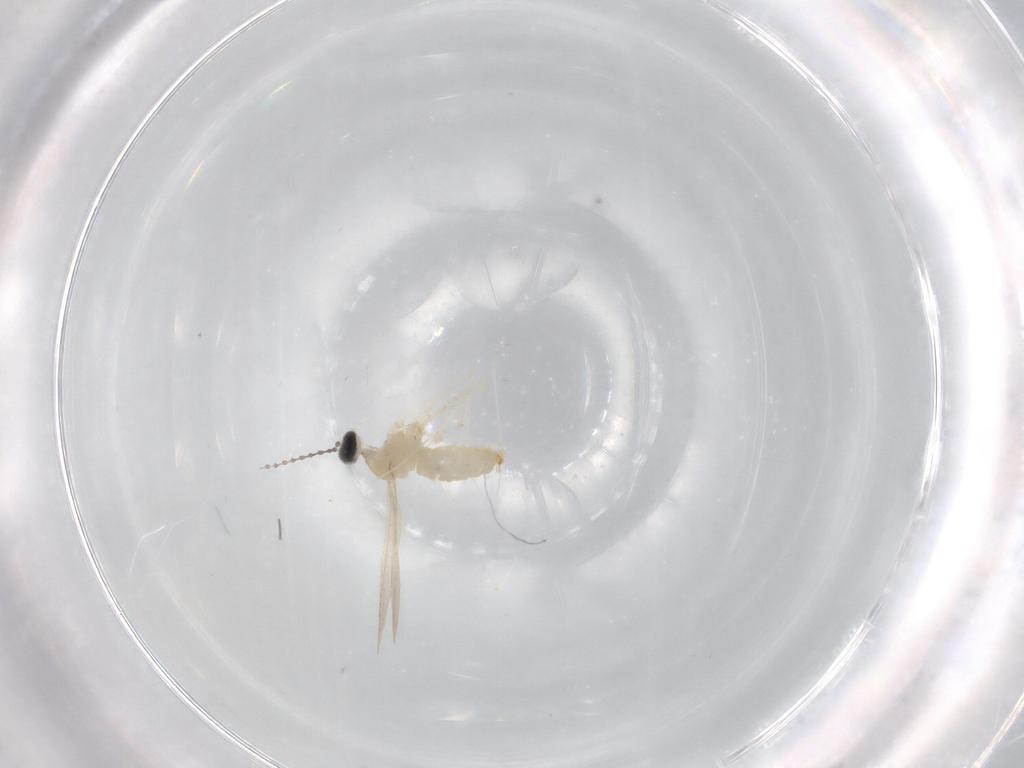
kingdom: Animalia
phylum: Arthropoda
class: Insecta
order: Diptera
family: Cecidomyiidae
